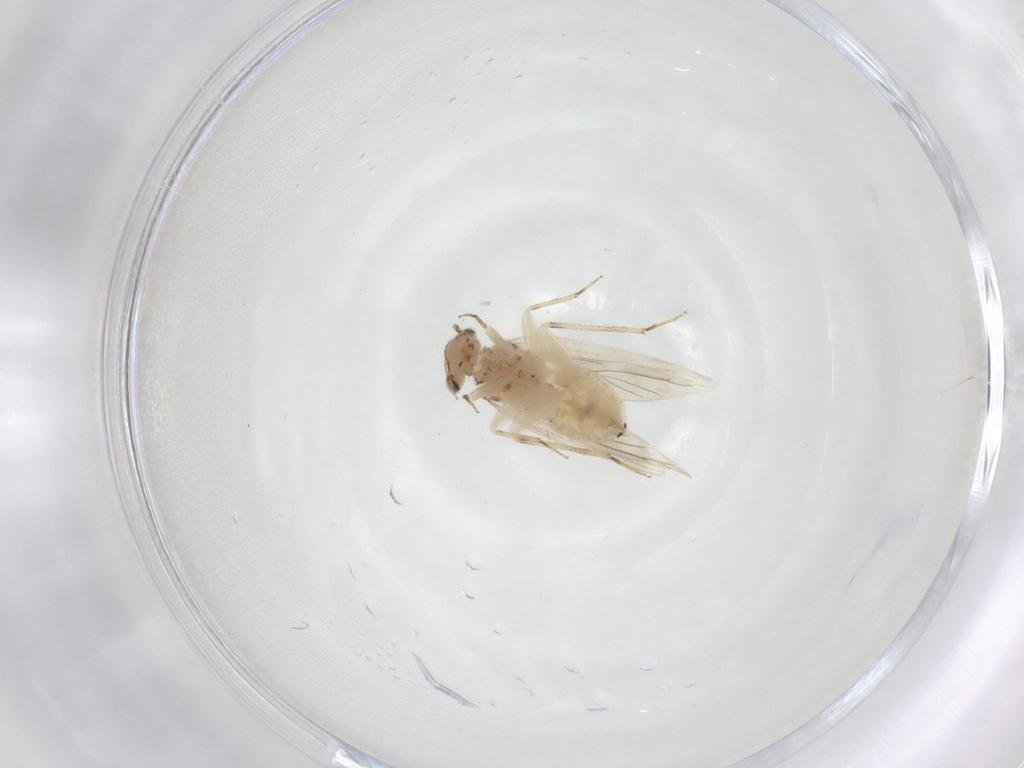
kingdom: Animalia
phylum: Arthropoda
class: Insecta
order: Psocodea
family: Lepidopsocidae
